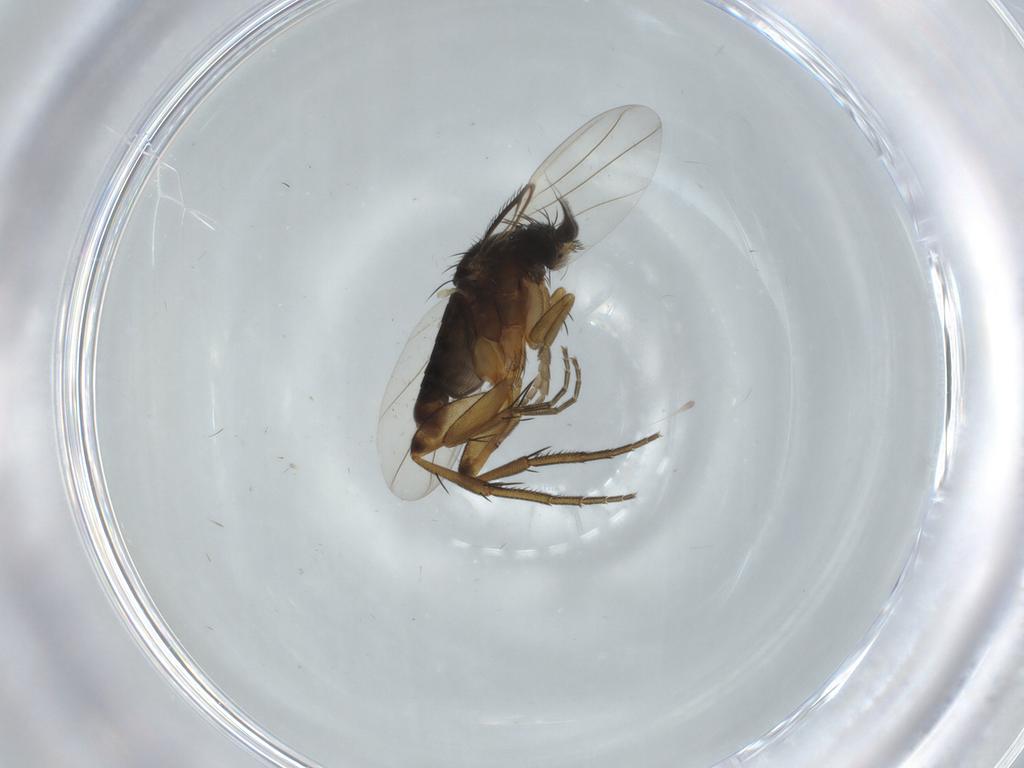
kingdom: Animalia
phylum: Arthropoda
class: Insecta
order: Diptera
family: Phoridae
